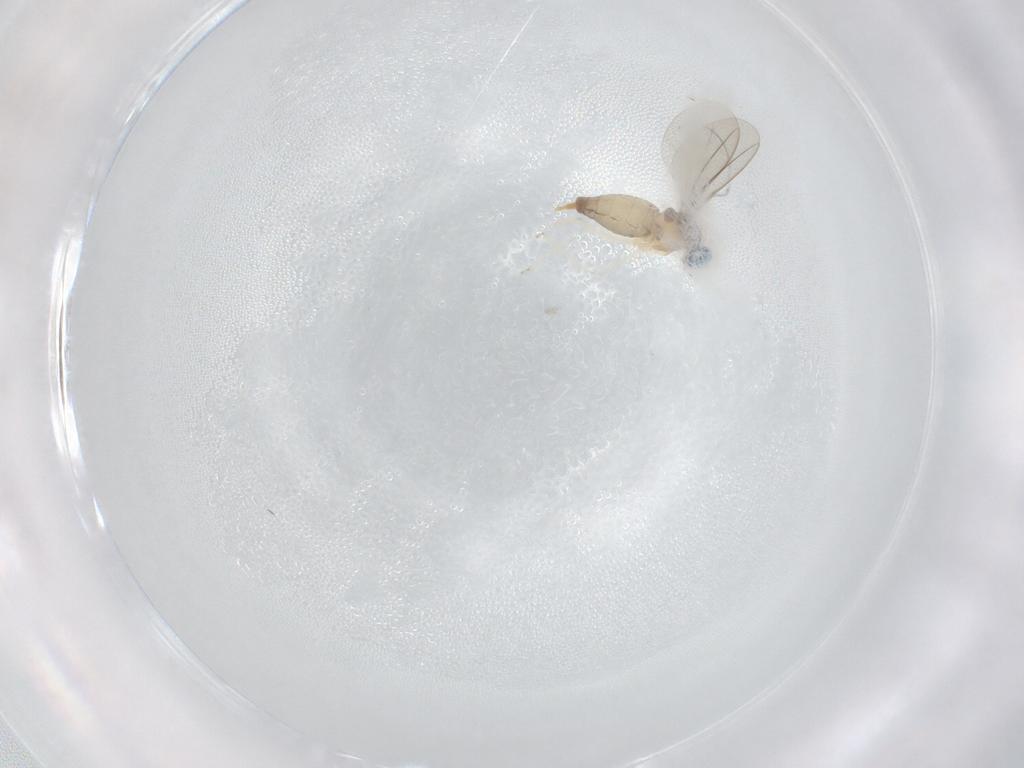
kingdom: Animalia
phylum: Arthropoda
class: Insecta
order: Diptera
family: Cecidomyiidae
